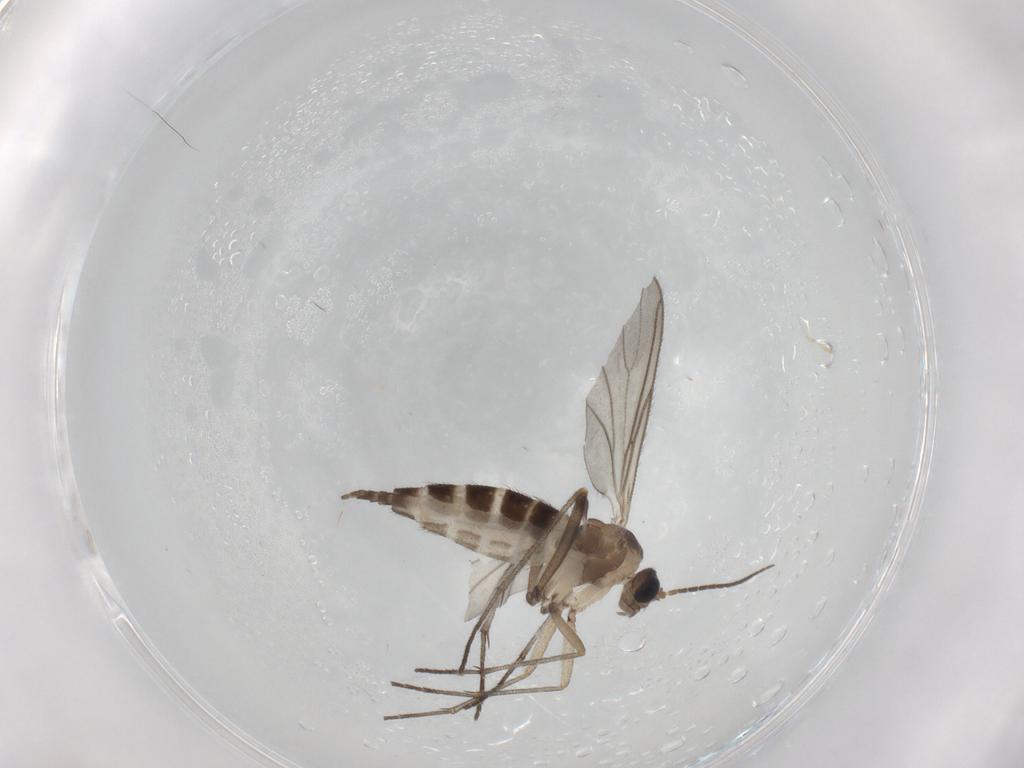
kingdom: Animalia
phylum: Arthropoda
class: Insecta
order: Diptera
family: Sciaridae
